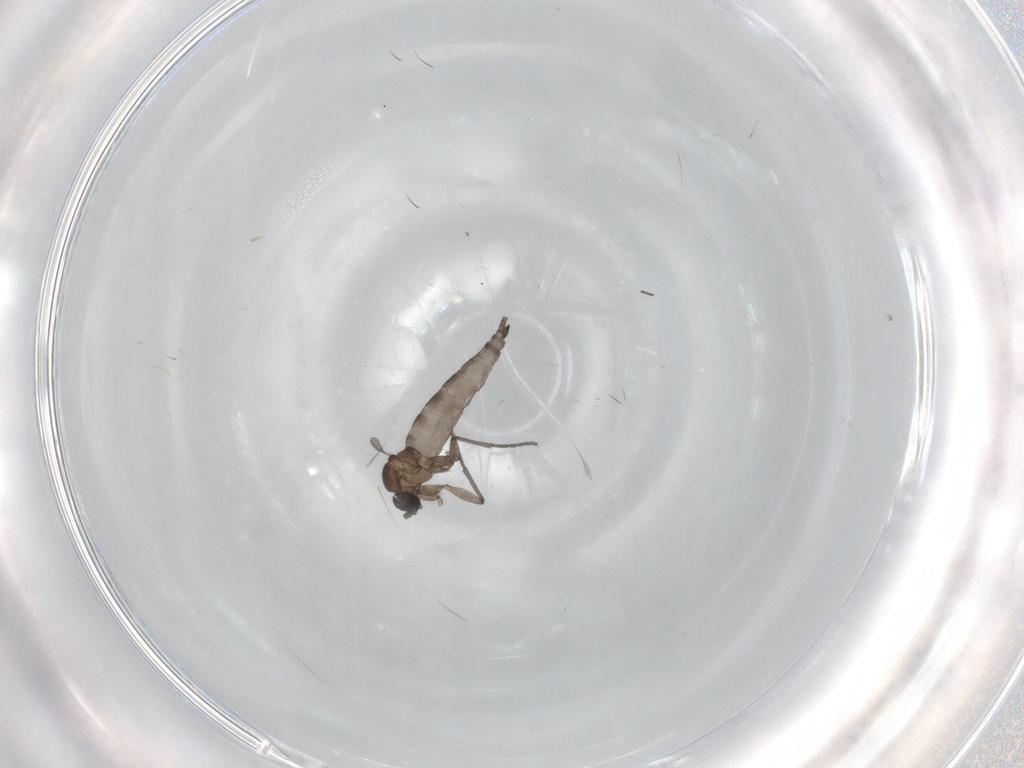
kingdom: Animalia
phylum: Arthropoda
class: Insecta
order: Diptera
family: Sciaridae
